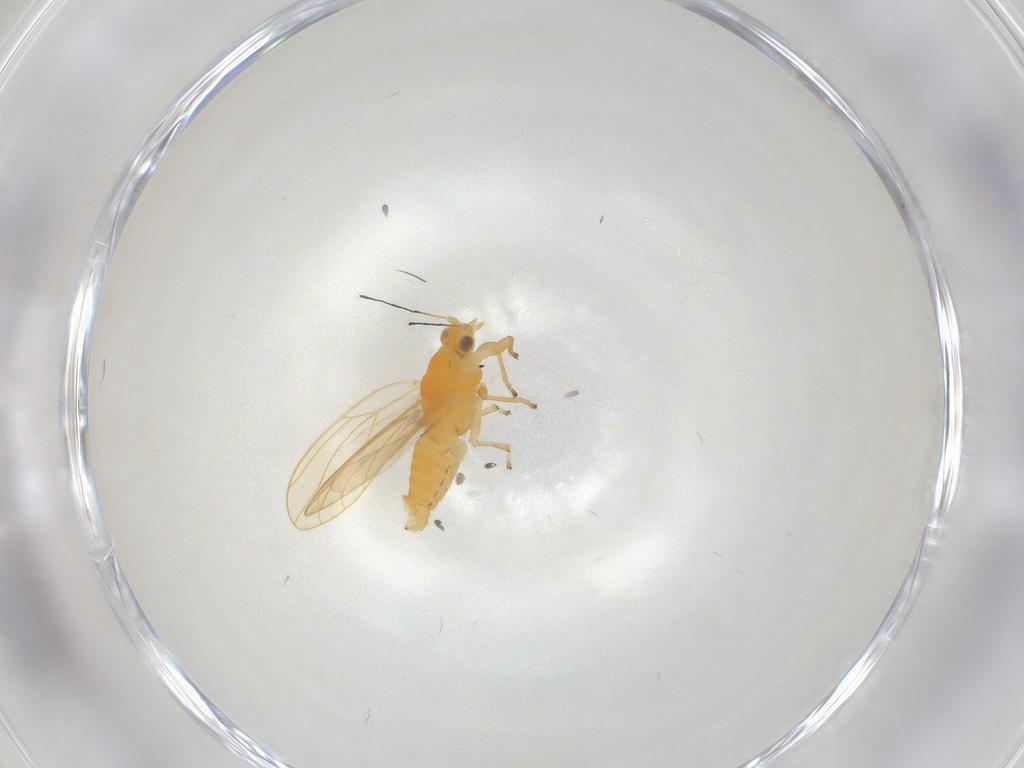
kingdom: Animalia
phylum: Arthropoda
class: Insecta
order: Hemiptera
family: Triozidae
